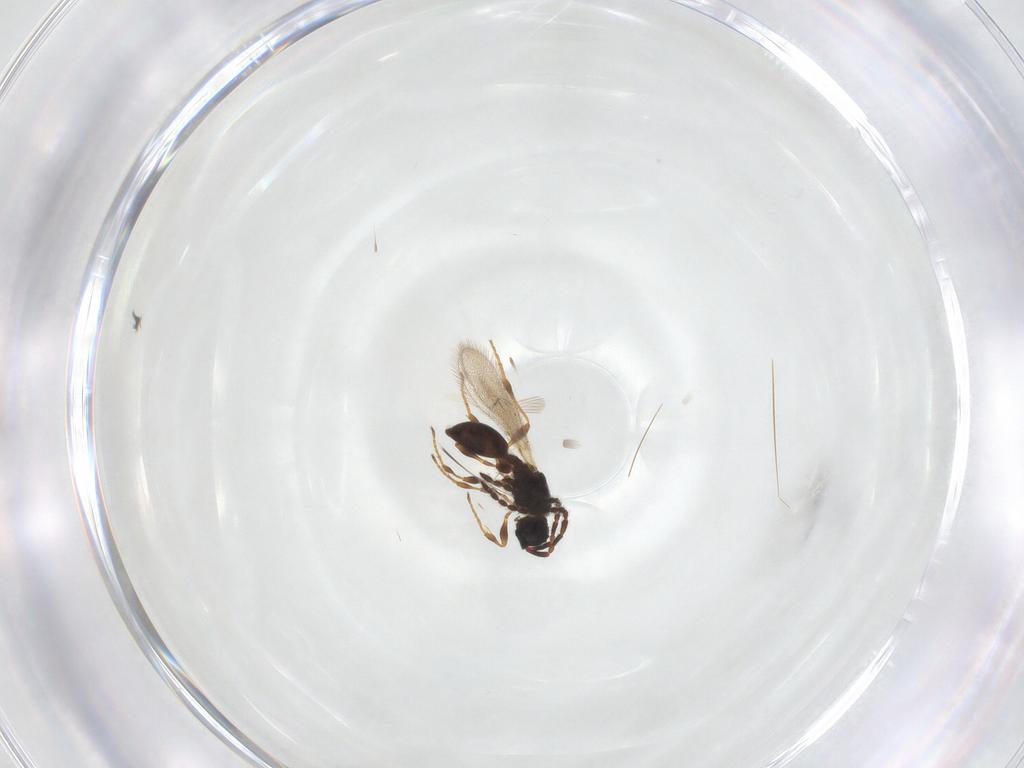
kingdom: Animalia
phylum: Arthropoda
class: Insecta
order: Hymenoptera
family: Diapriidae
